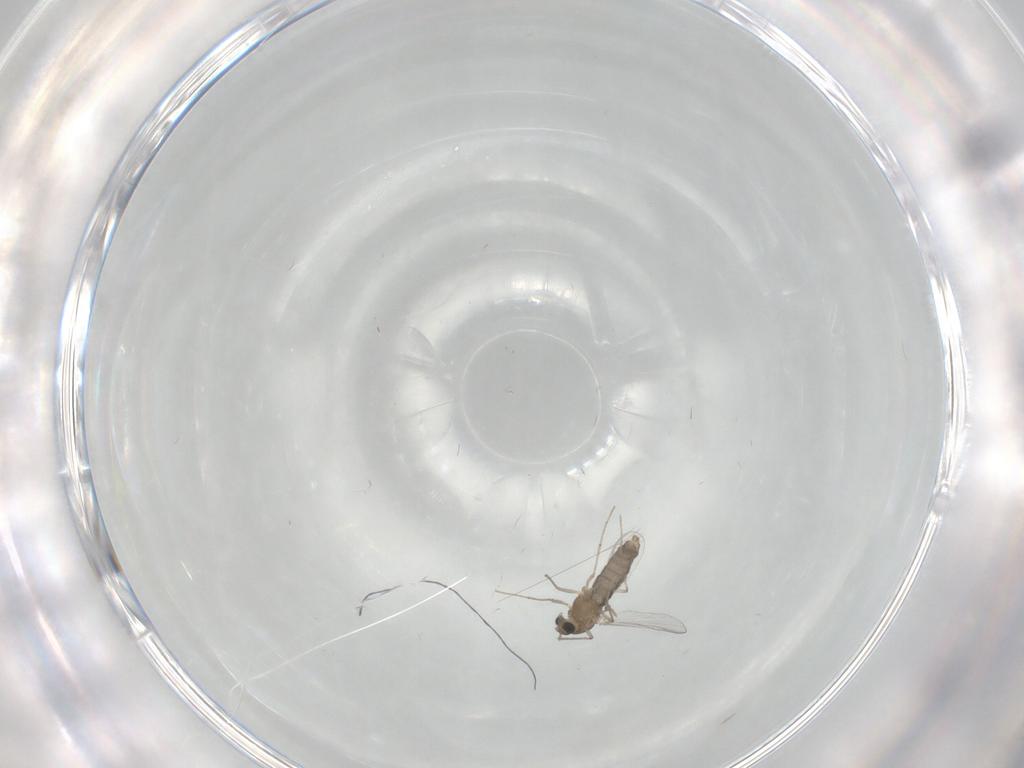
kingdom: Animalia
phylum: Arthropoda
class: Insecta
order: Diptera
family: Chironomidae
